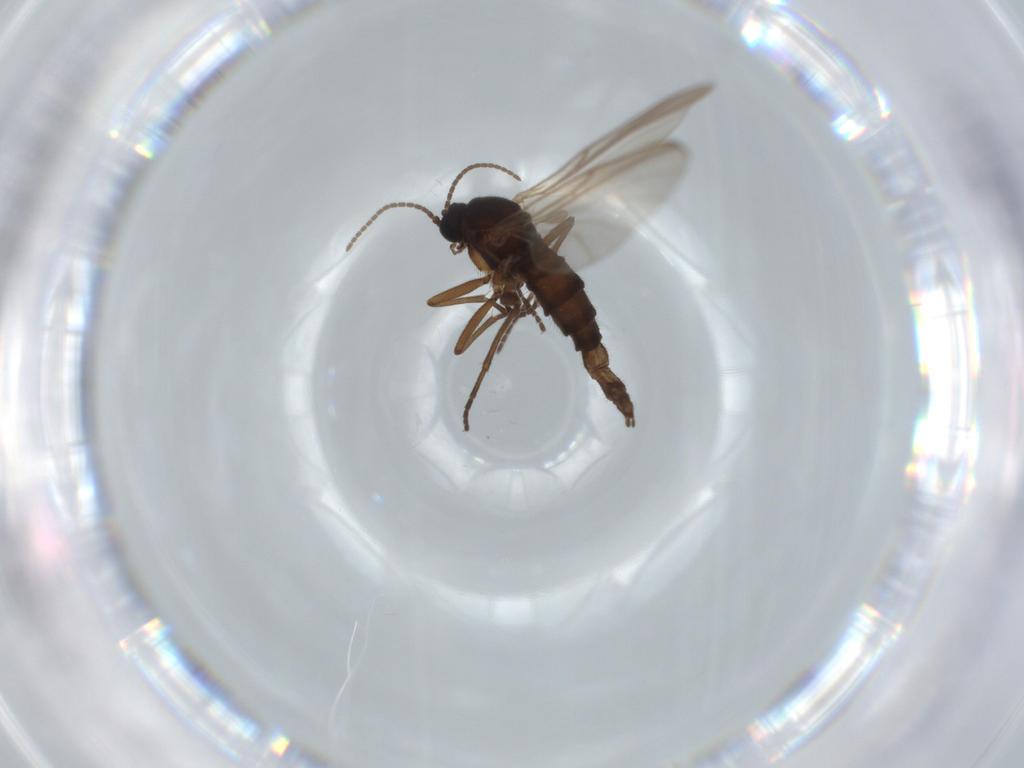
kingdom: Animalia
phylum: Arthropoda
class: Insecta
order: Diptera
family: Sciaridae
